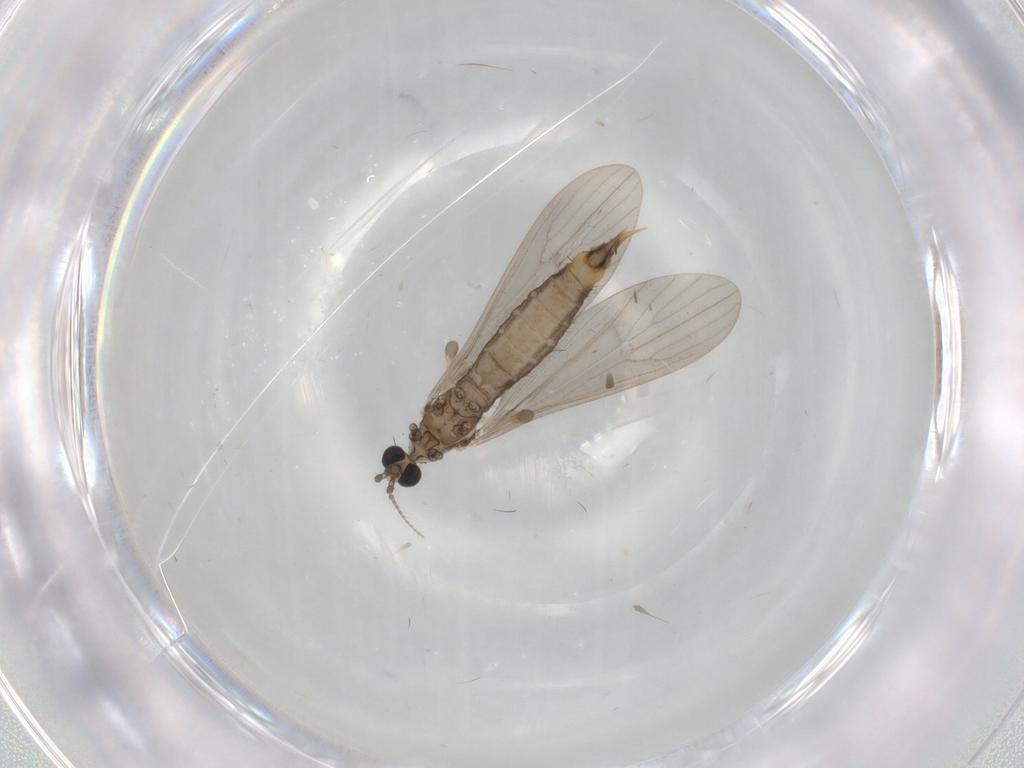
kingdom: Animalia
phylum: Arthropoda
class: Insecta
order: Diptera
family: Limoniidae
